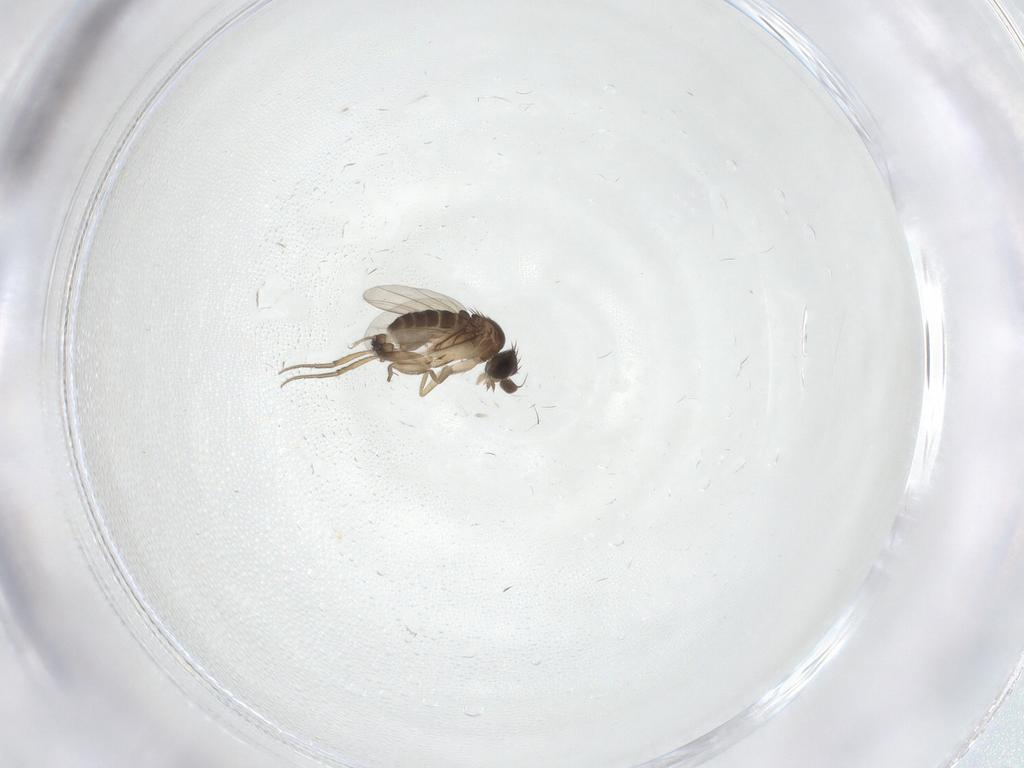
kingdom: Animalia
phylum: Arthropoda
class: Insecta
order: Diptera
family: Phoridae
